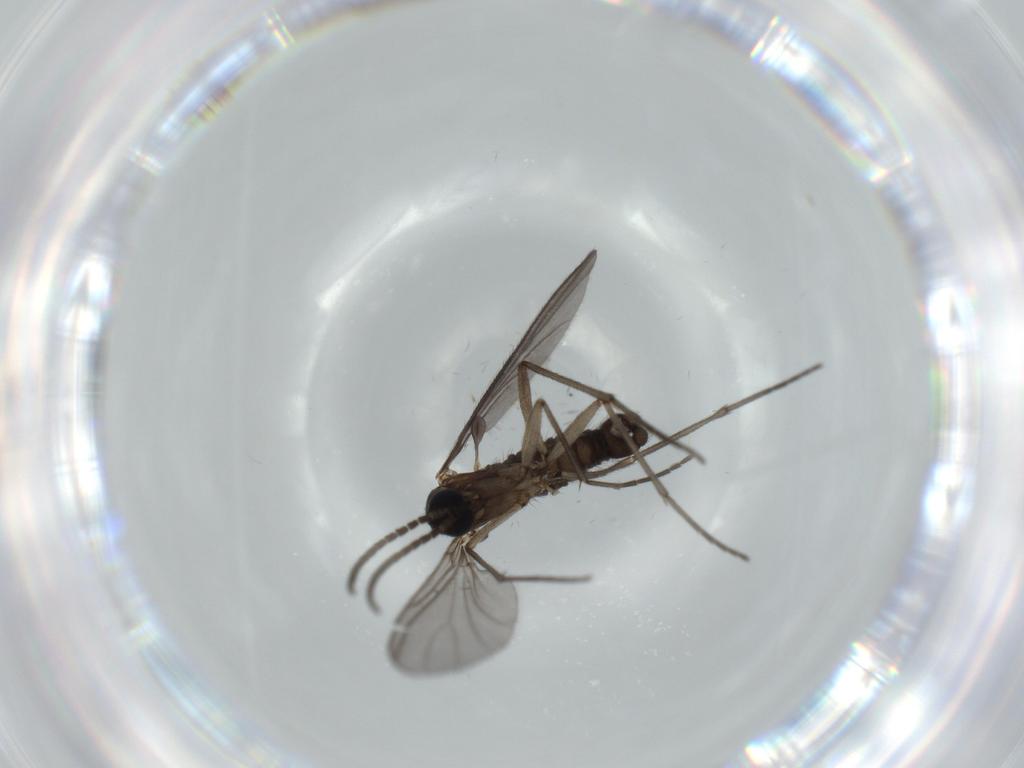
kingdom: Animalia
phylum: Arthropoda
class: Insecta
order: Diptera
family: Sciaridae
